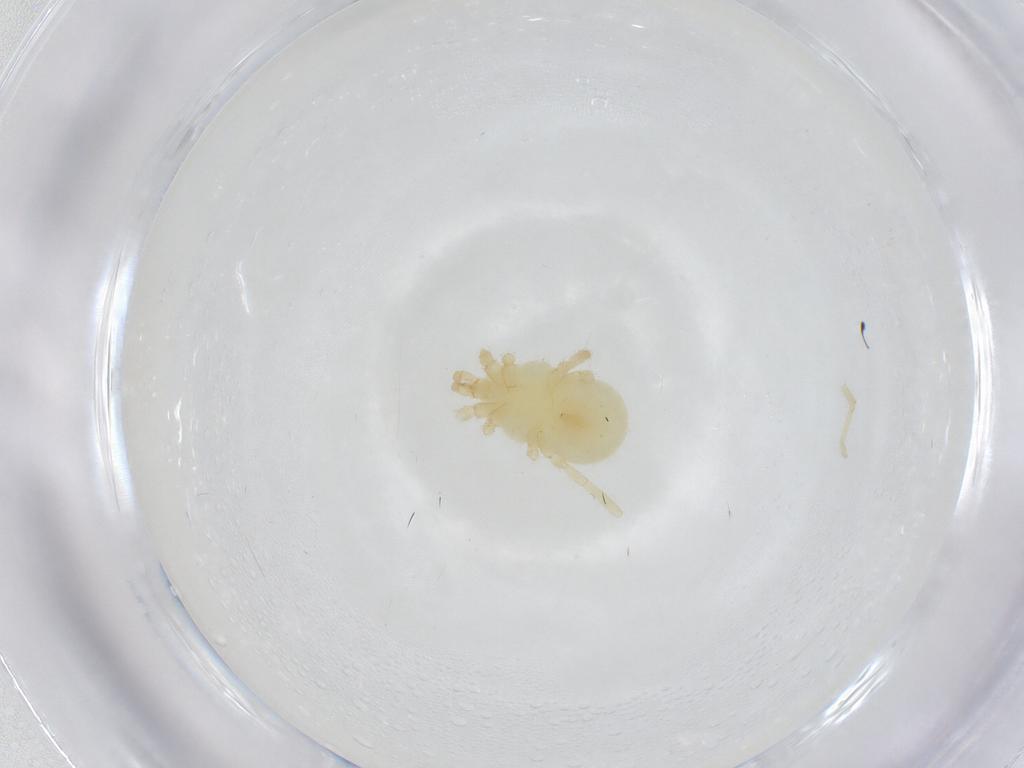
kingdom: Animalia
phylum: Arthropoda
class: Arachnida
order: Trombidiformes
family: Erythraeidae
